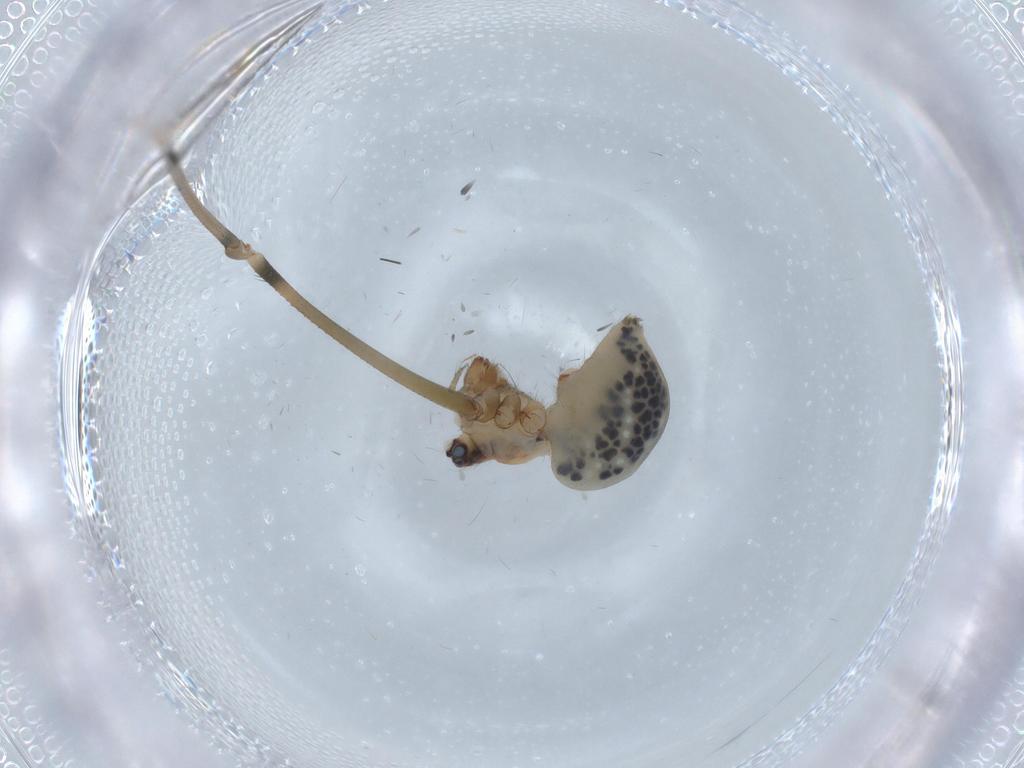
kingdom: Animalia
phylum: Arthropoda
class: Arachnida
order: Araneae
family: Pholcidae
